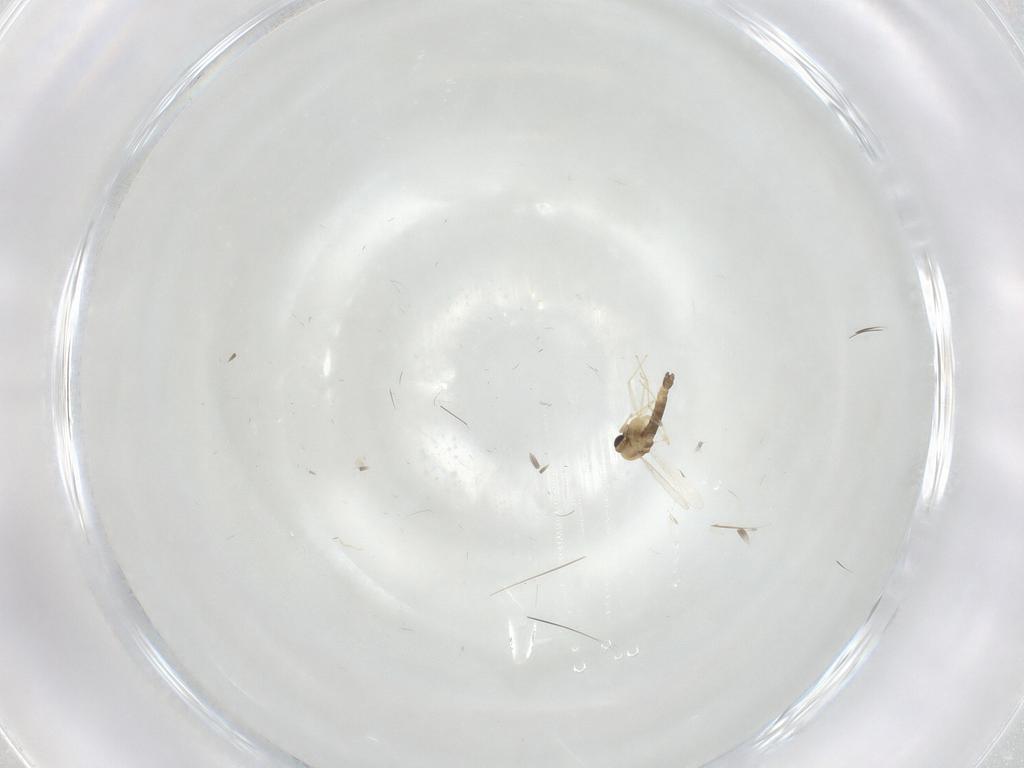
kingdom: Animalia
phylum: Arthropoda
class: Insecta
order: Diptera
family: Chironomidae
